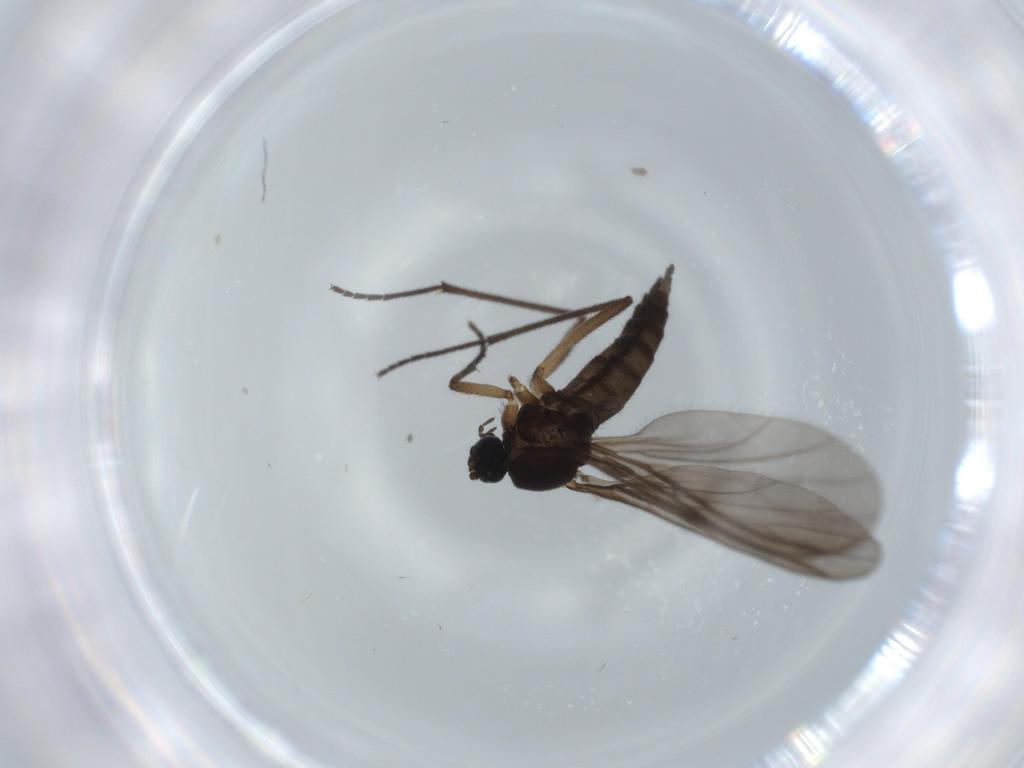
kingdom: Animalia
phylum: Arthropoda
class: Insecta
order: Diptera
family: Sciaridae
